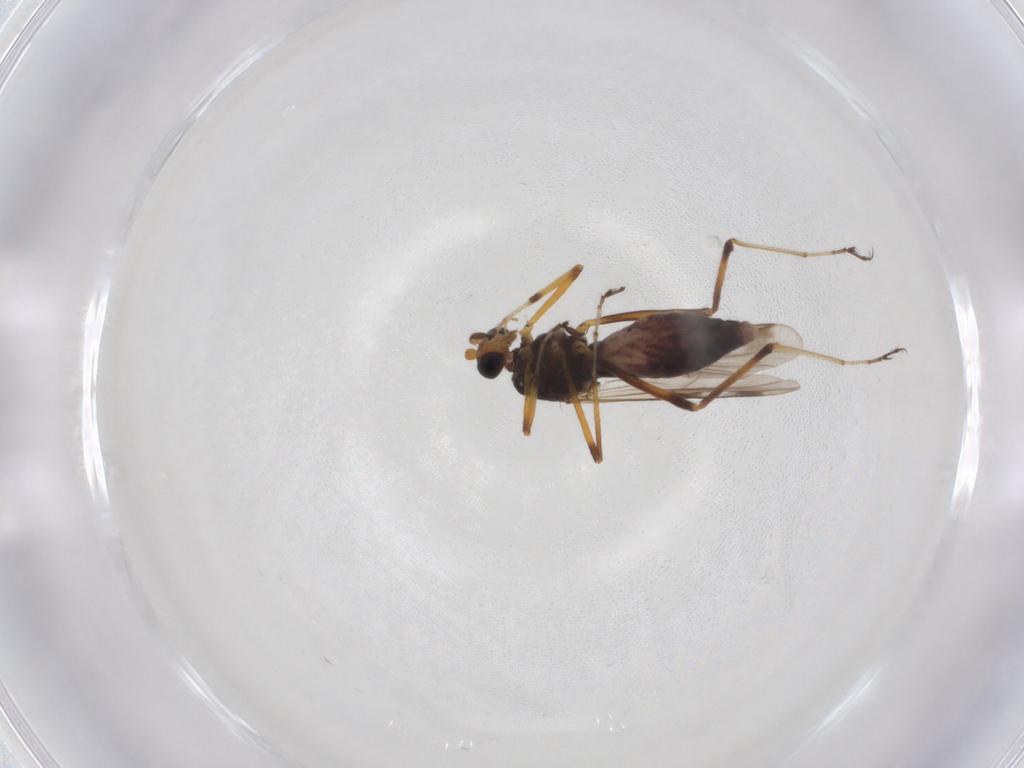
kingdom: Animalia
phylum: Arthropoda
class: Insecta
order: Diptera
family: Ceratopogonidae
